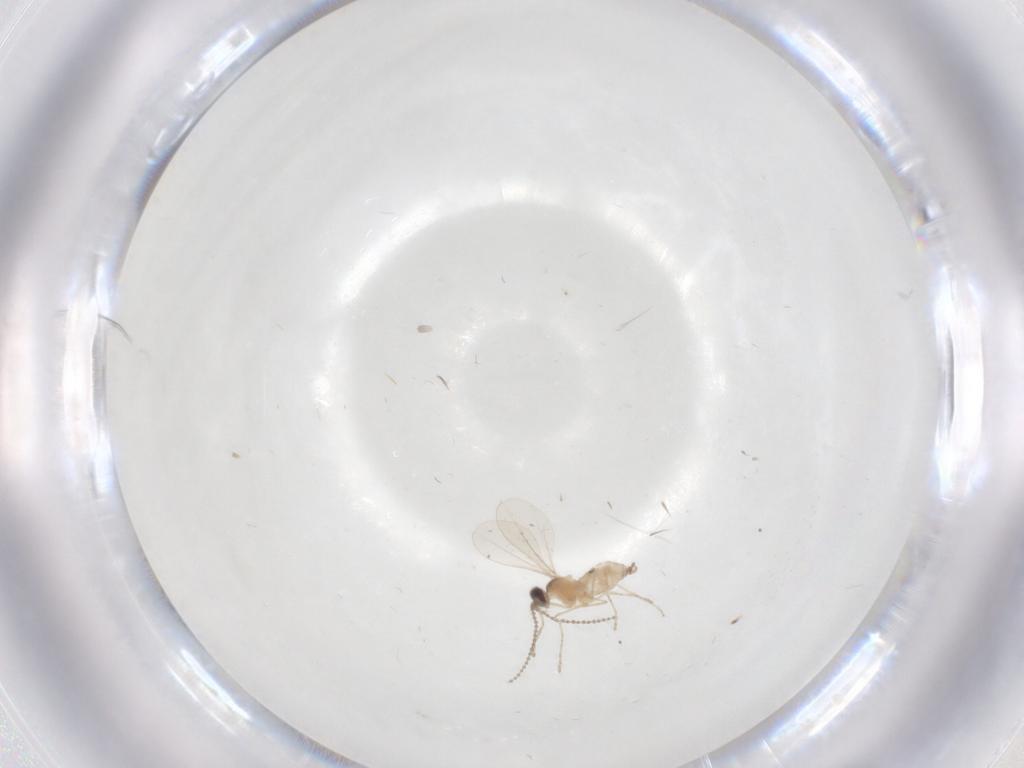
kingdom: Animalia
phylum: Arthropoda
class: Insecta
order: Diptera
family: Cecidomyiidae
